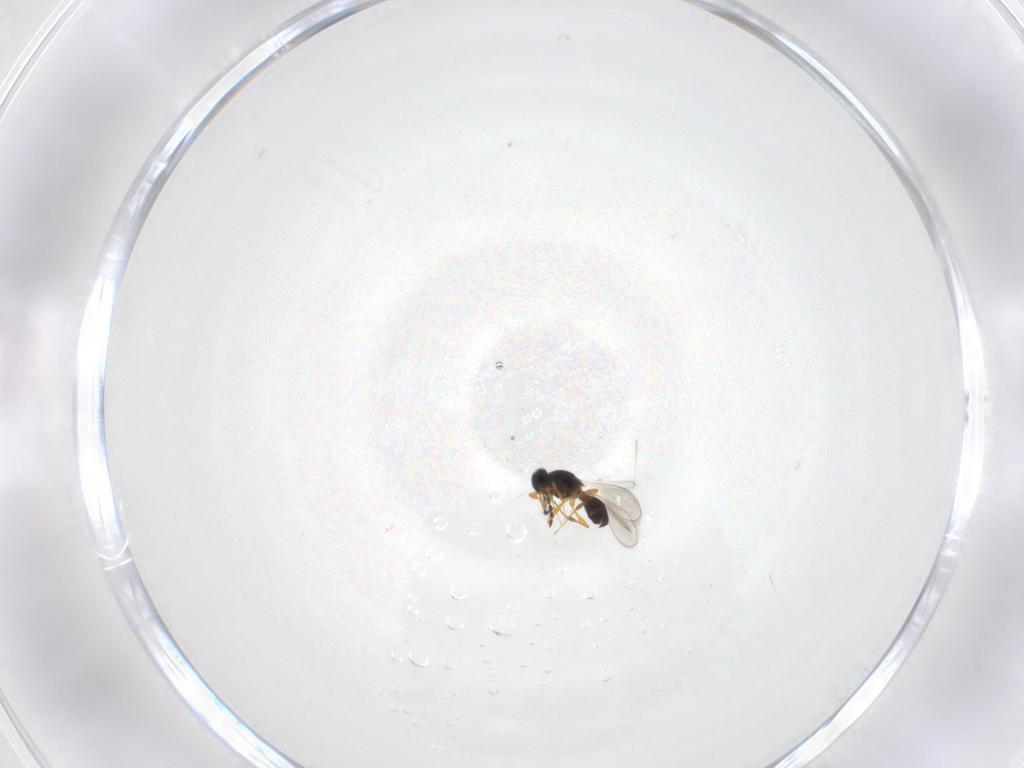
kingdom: Animalia
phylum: Arthropoda
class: Insecta
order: Hymenoptera
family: Platygastridae
